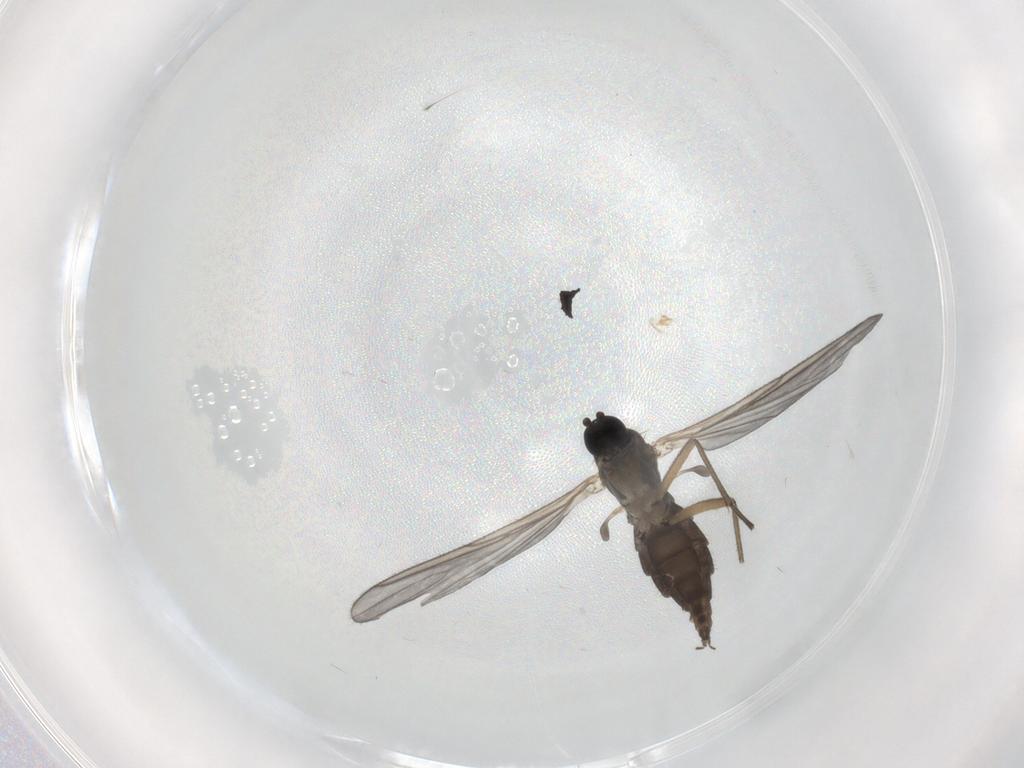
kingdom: Animalia
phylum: Arthropoda
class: Insecta
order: Diptera
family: Sciaridae
